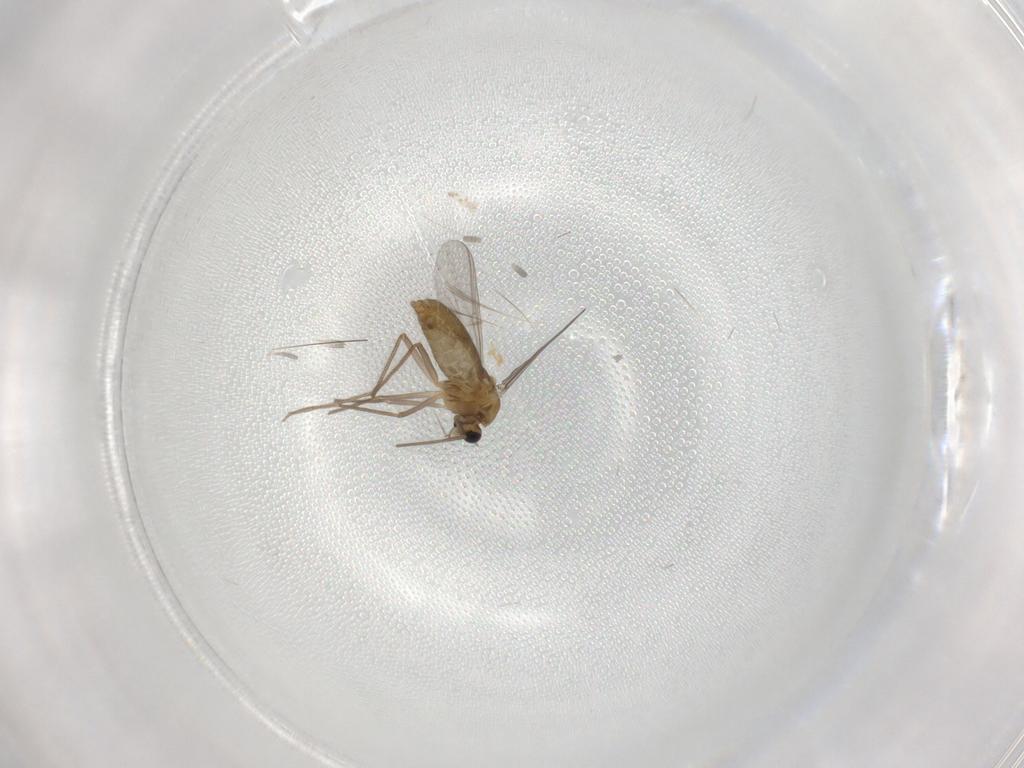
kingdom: Animalia
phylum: Arthropoda
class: Insecta
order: Diptera
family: Chironomidae
